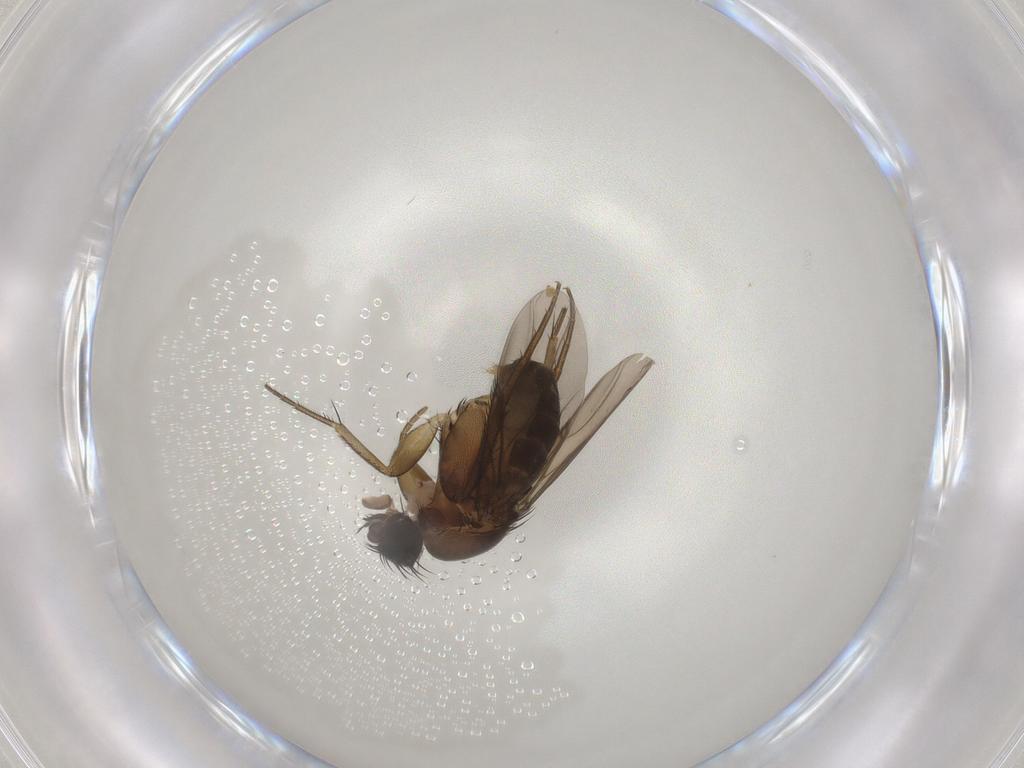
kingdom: Animalia
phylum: Arthropoda
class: Insecta
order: Diptera
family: Phoridae
